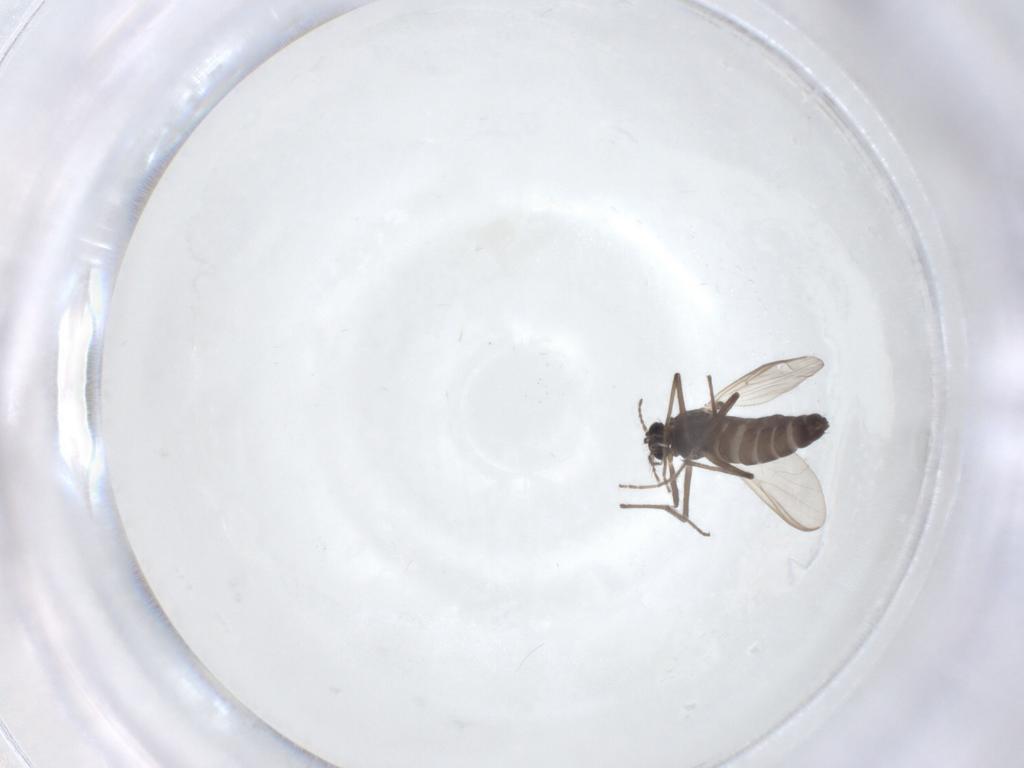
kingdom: Animalia
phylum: Arthropoda
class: Insecta
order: Diptera
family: Chironomidae
